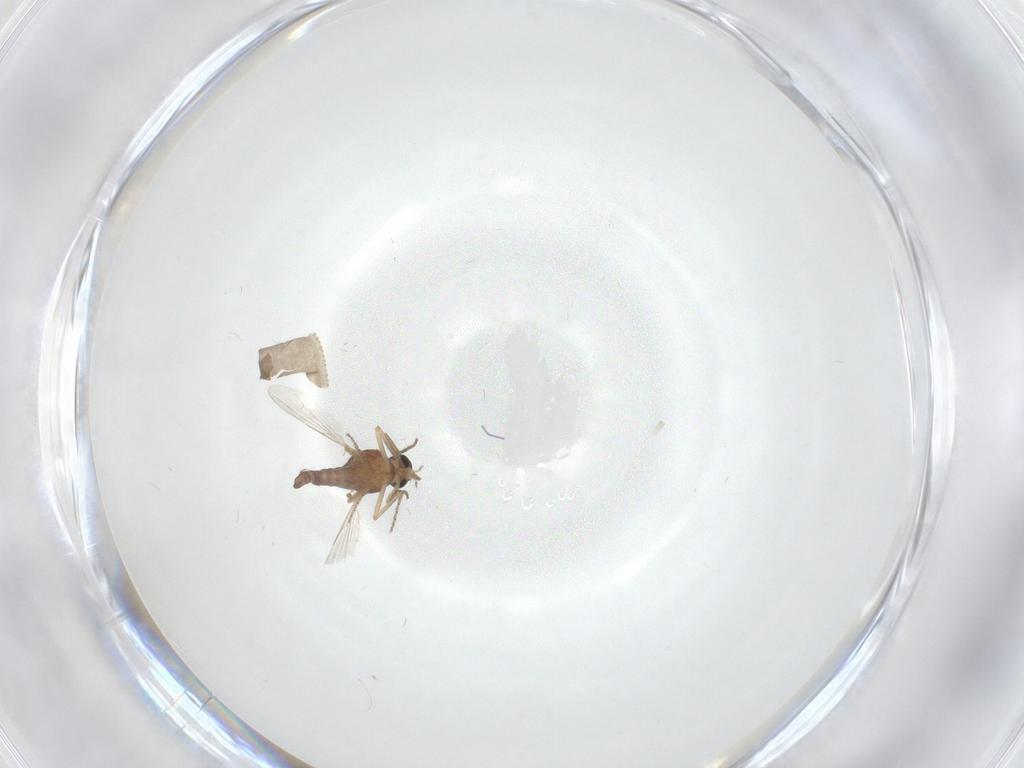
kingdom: Animalia
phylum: Arthropoda
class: Insecta
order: Diptera
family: Ceratopogonidae
